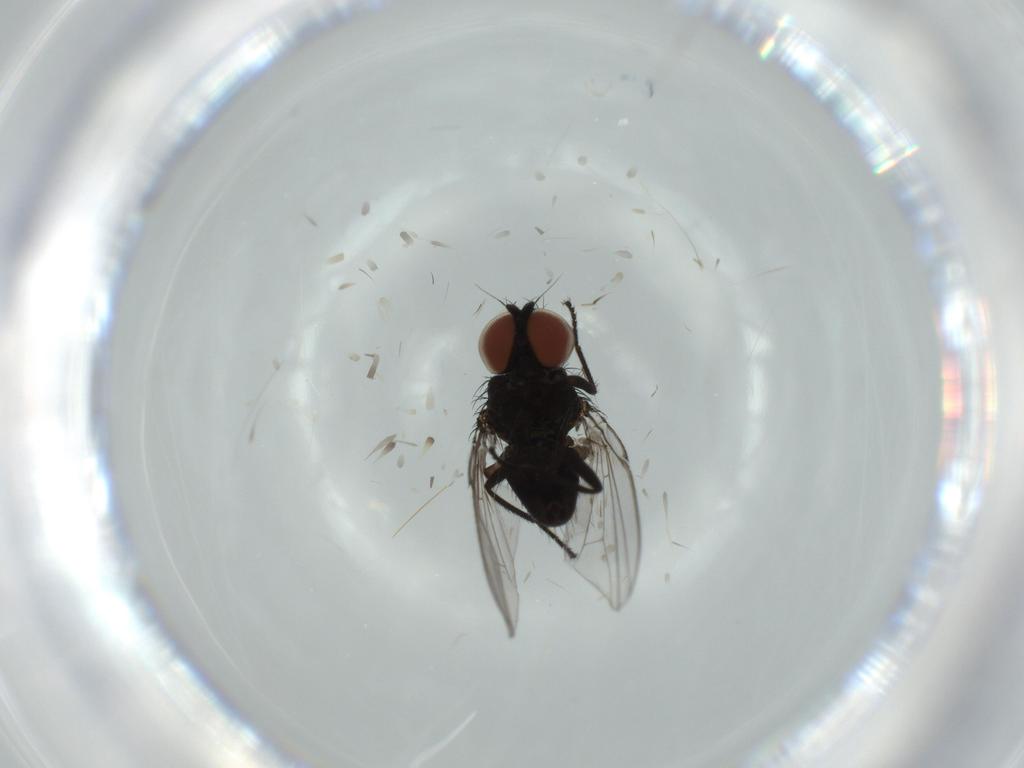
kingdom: Animalia
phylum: Arthropoda
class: Insecta
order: Diptera
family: Milichiidae
